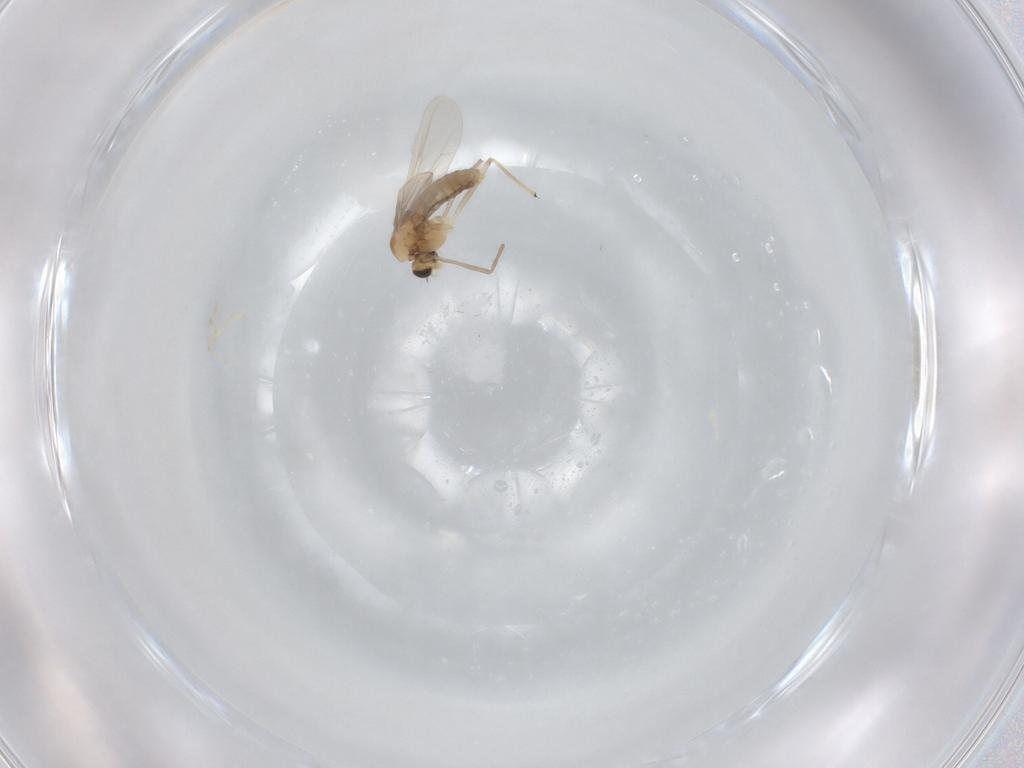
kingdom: Animalia
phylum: Arthropoda
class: Insecta
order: Diptera
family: Chironomidae
